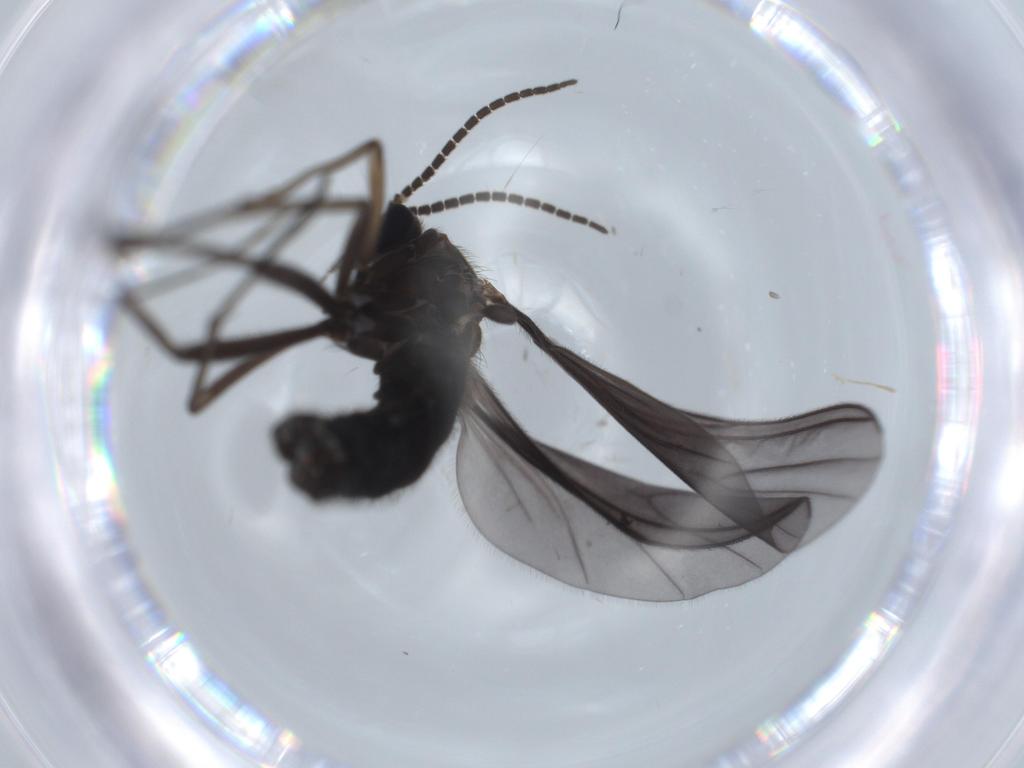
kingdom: Animalia
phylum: Arthropoda
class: Insecta
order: Diptera
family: Sciaridae
